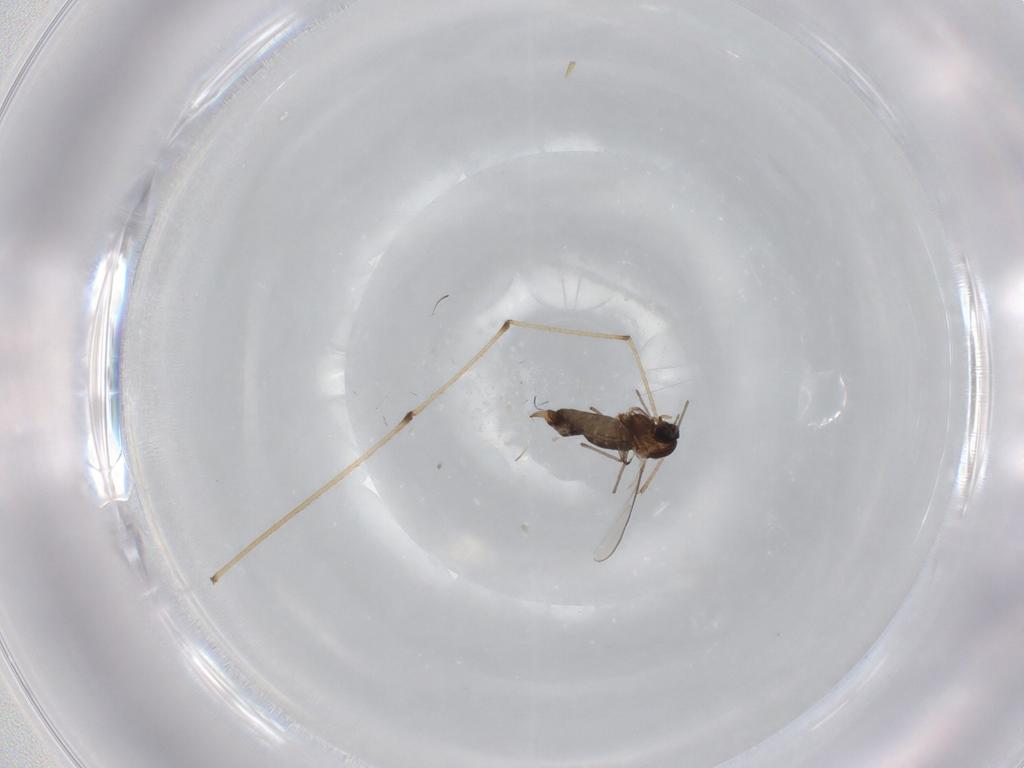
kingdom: Animalia
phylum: Arthropoda
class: Insecta
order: Diptera
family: Chironomidae
